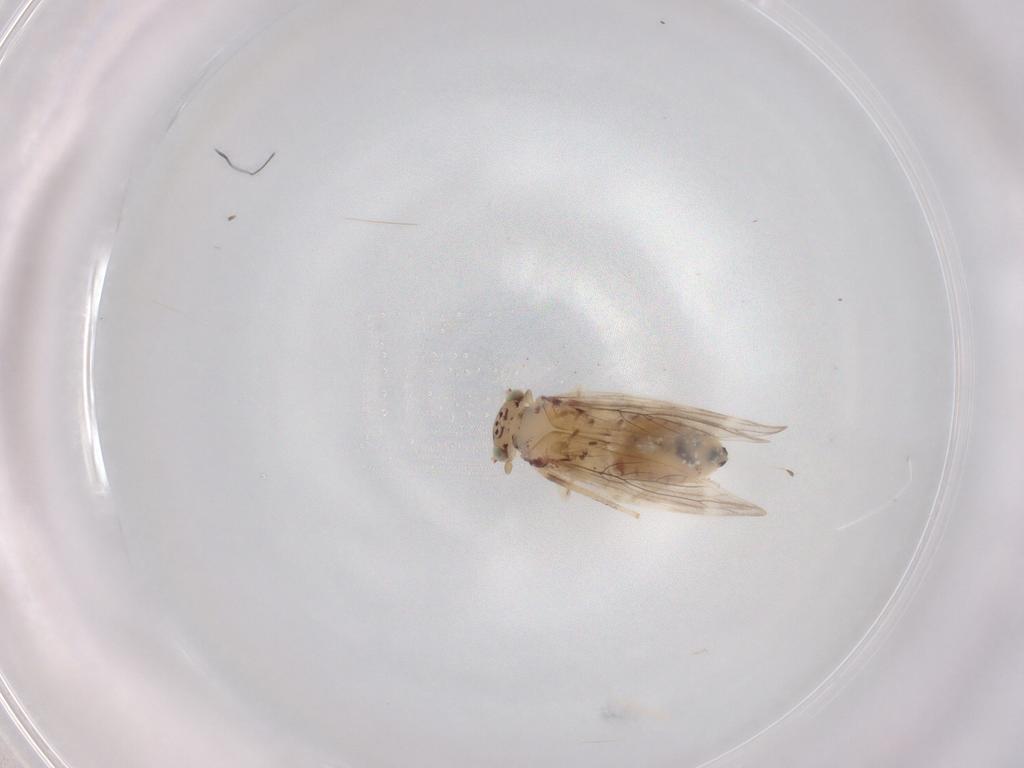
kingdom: Animalia
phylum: Arthropoda
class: Insecta
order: Psocodea
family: Lepidopsocidae
